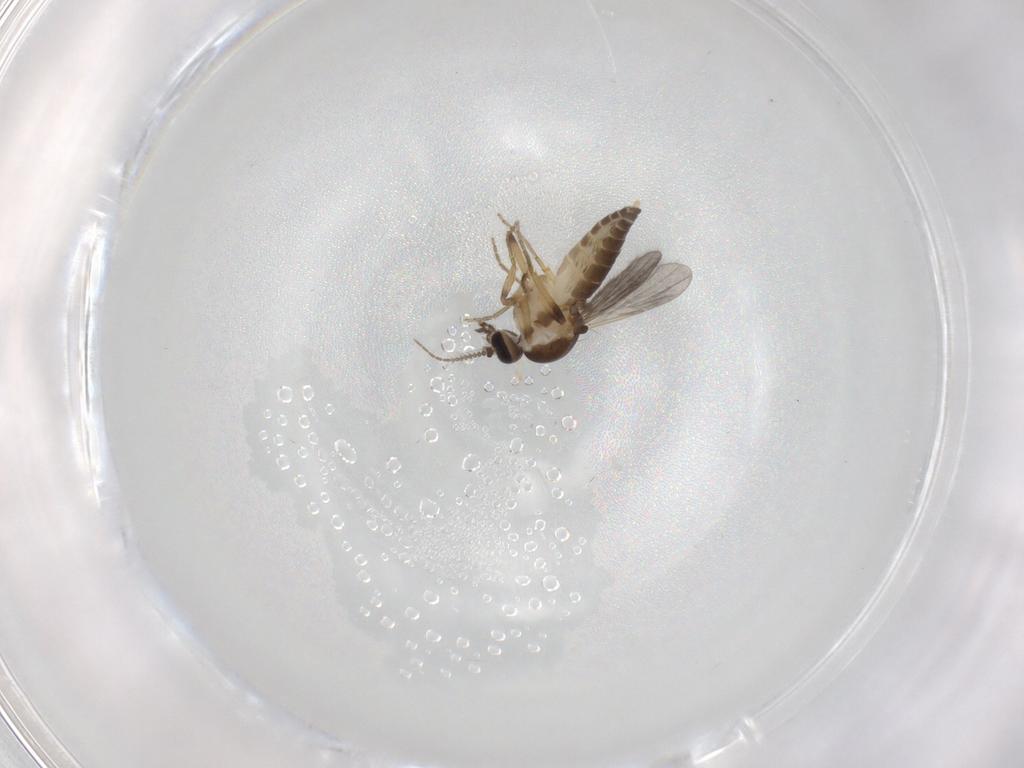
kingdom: Animalia
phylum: Arthropoda
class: Insecta
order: Diptera
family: Ceratopogonidae
